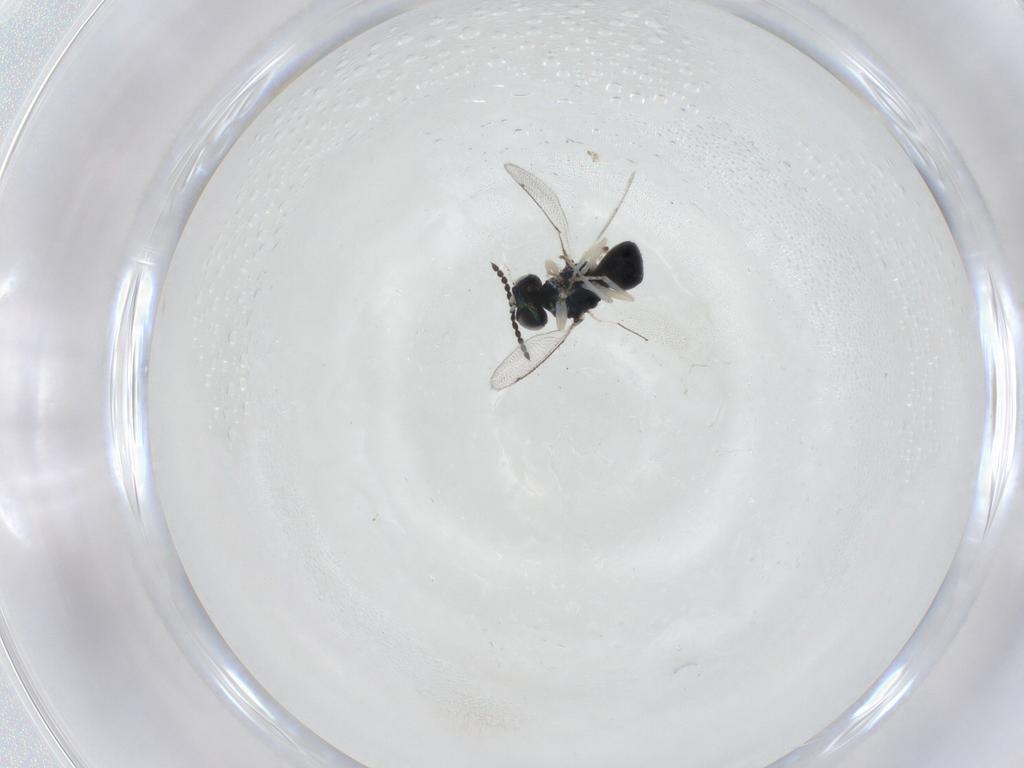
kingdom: Animalia
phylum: Arthropoda
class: Insecta
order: Hymenoptera
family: Eulophidae
